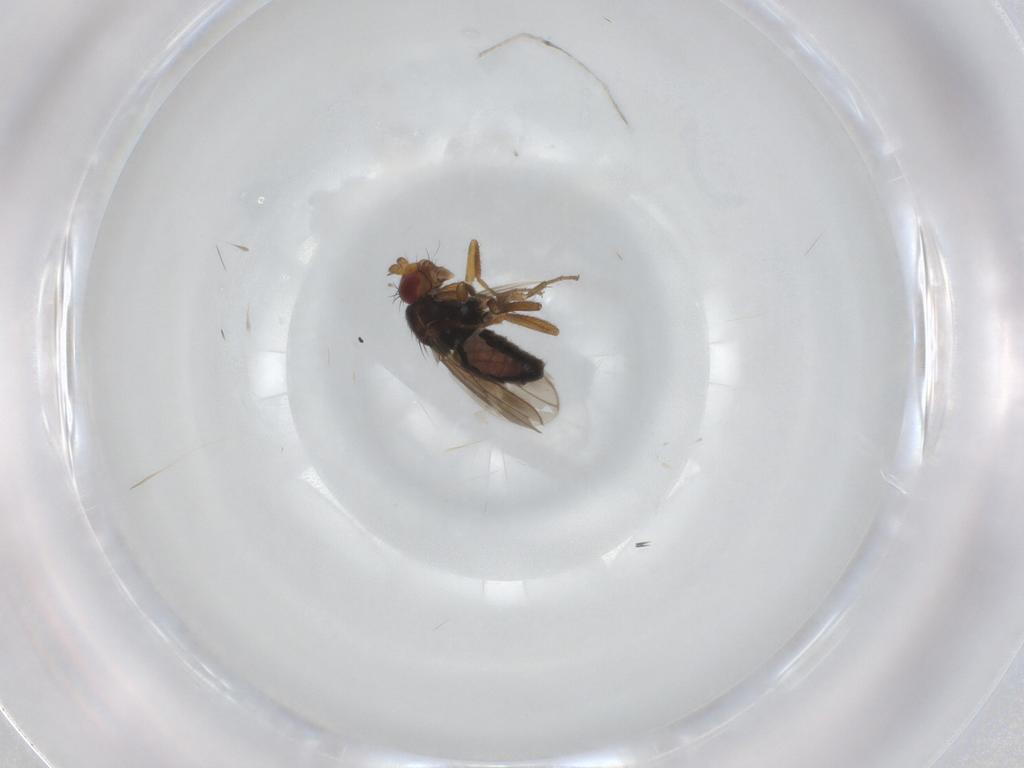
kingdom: Animalia
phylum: Arthropoda
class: Insecta
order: Diptera
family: Sphaeroceridae
